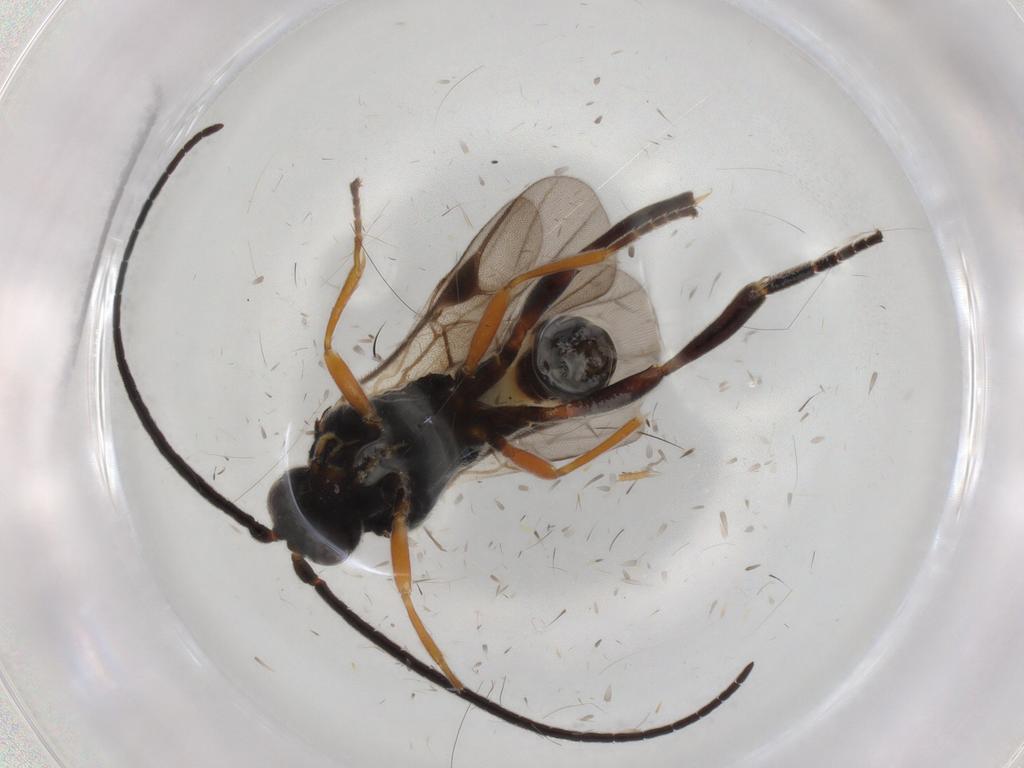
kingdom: Animalia
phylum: Arthropoda
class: Insecta
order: Hymenoptera
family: Braconidae
